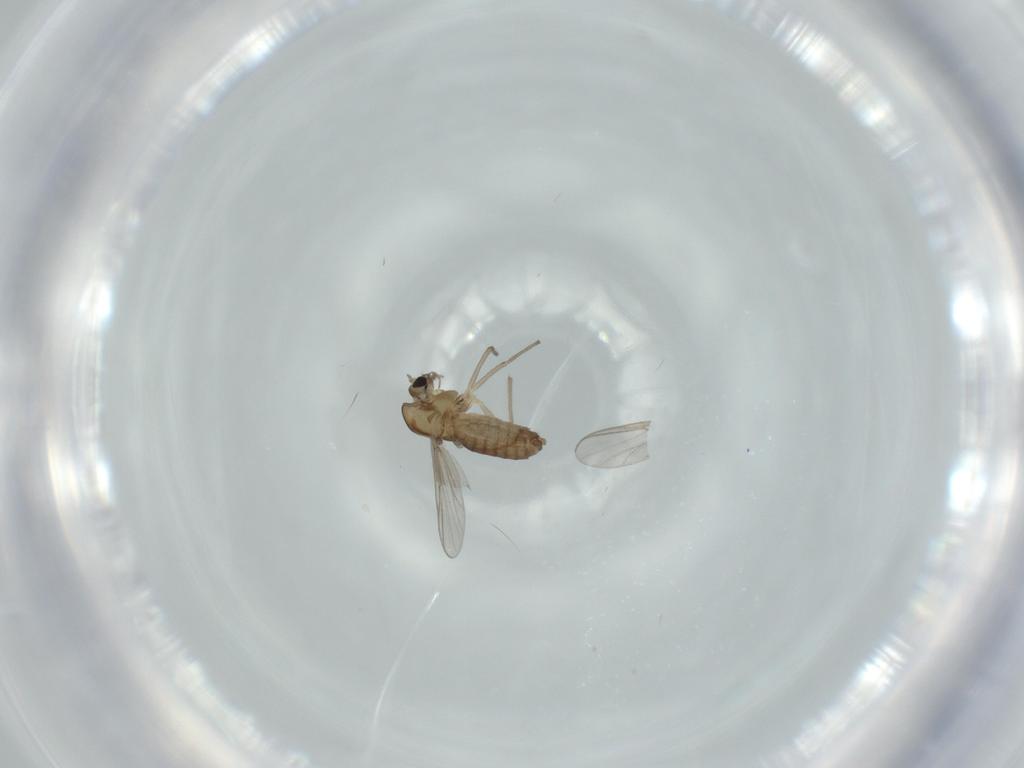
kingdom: Animalia
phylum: Arthropoda
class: Insecta
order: Diptera
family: Chironomidae
